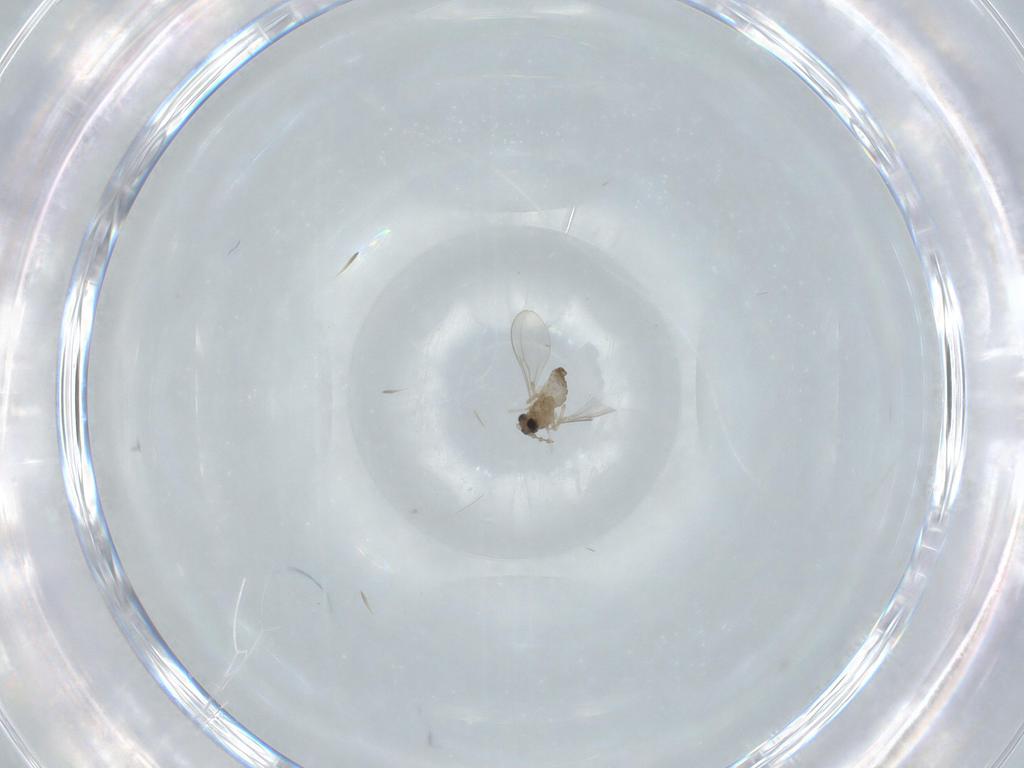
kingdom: Animalia
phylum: Arthropoda
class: Insecta
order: Diptera
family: Cecidomyiidae
